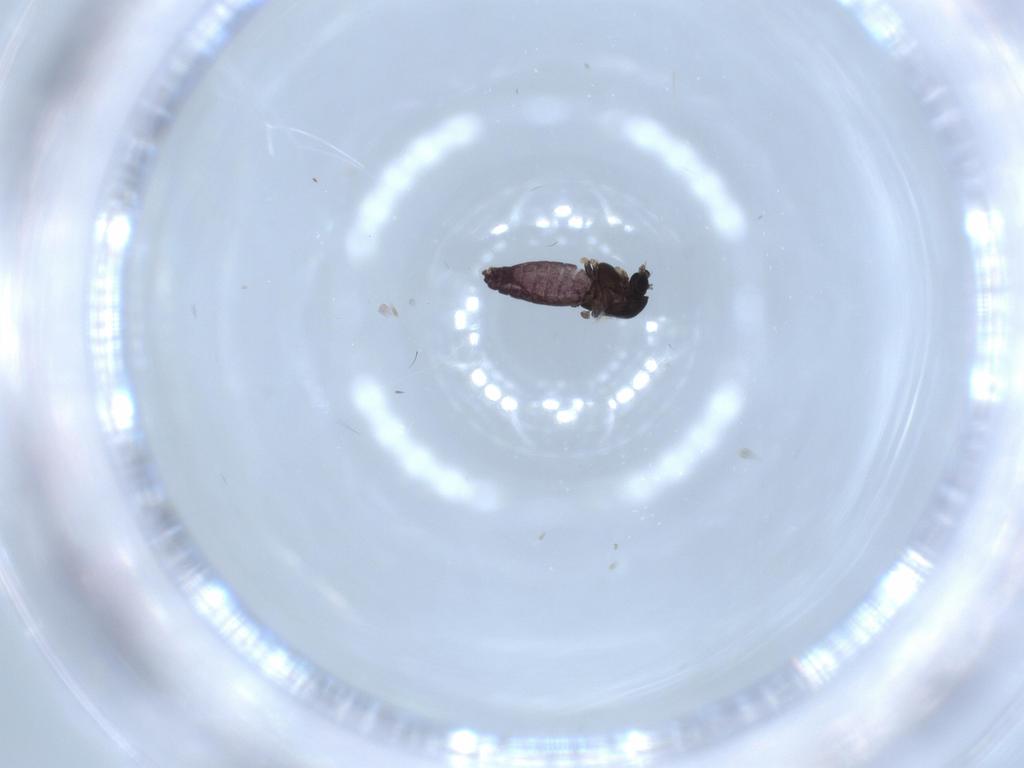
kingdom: Animalia
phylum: Arthropoda
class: Insecta
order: Diptera
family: Chironomidae
